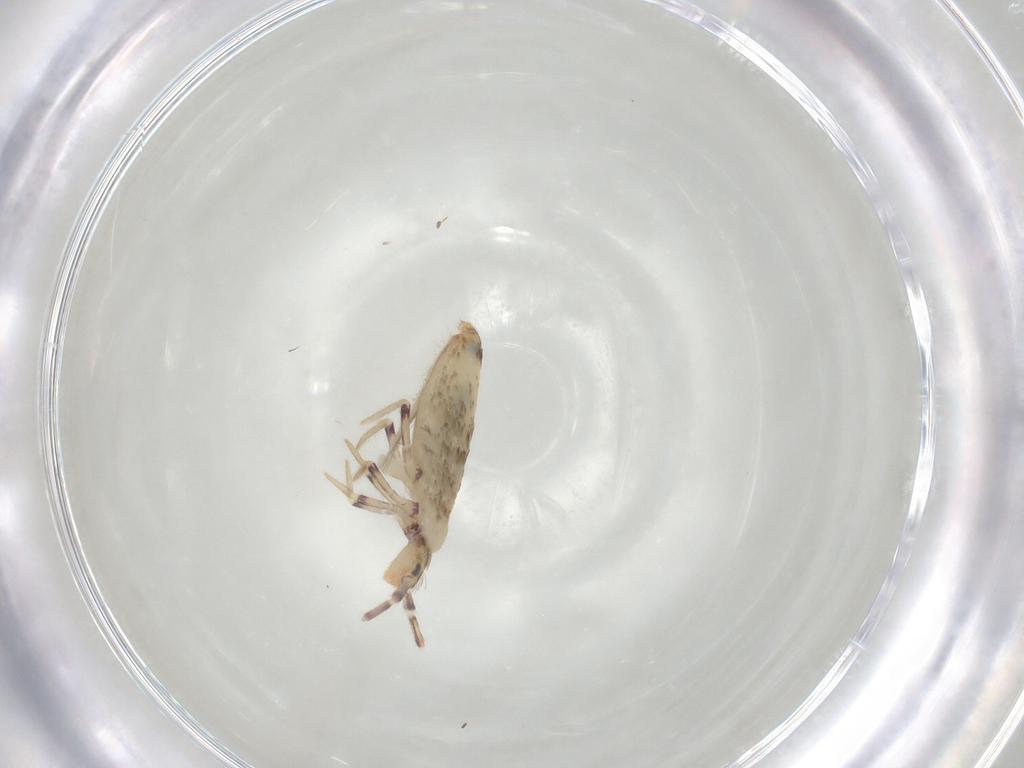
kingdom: Animalia
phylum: Arthropoda
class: Collembola
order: Entomobryomorpha
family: Entomobryidae
